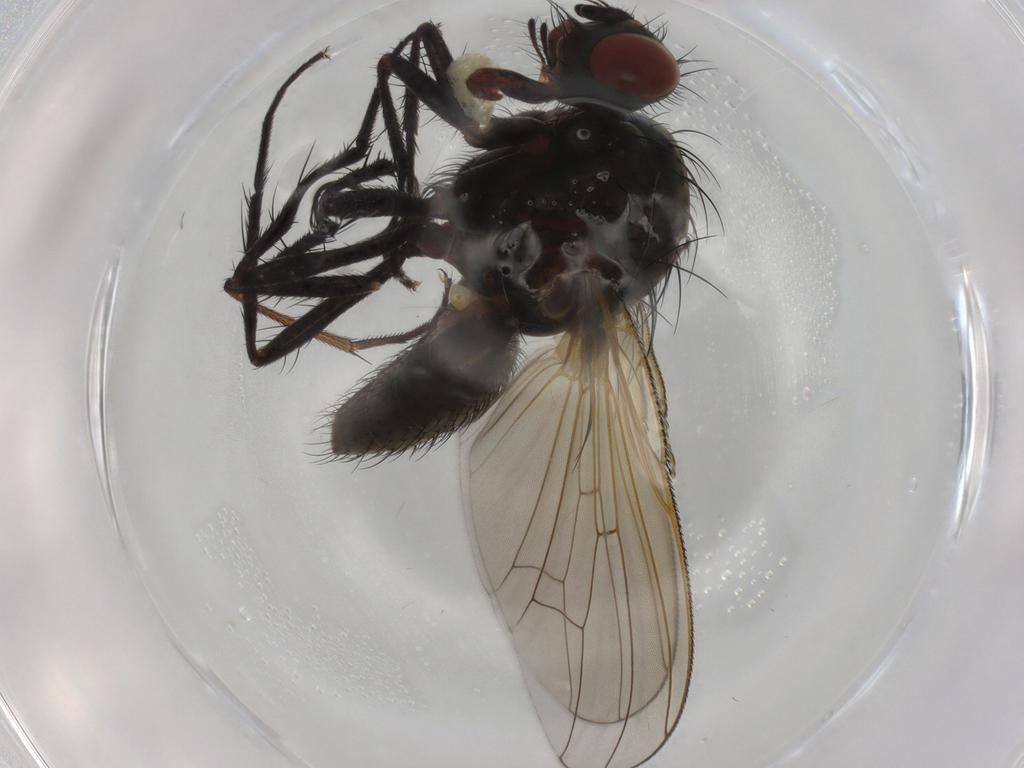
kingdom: Animalia
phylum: Arthropoda
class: Insecta
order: Diptera
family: Anthomyiidae
